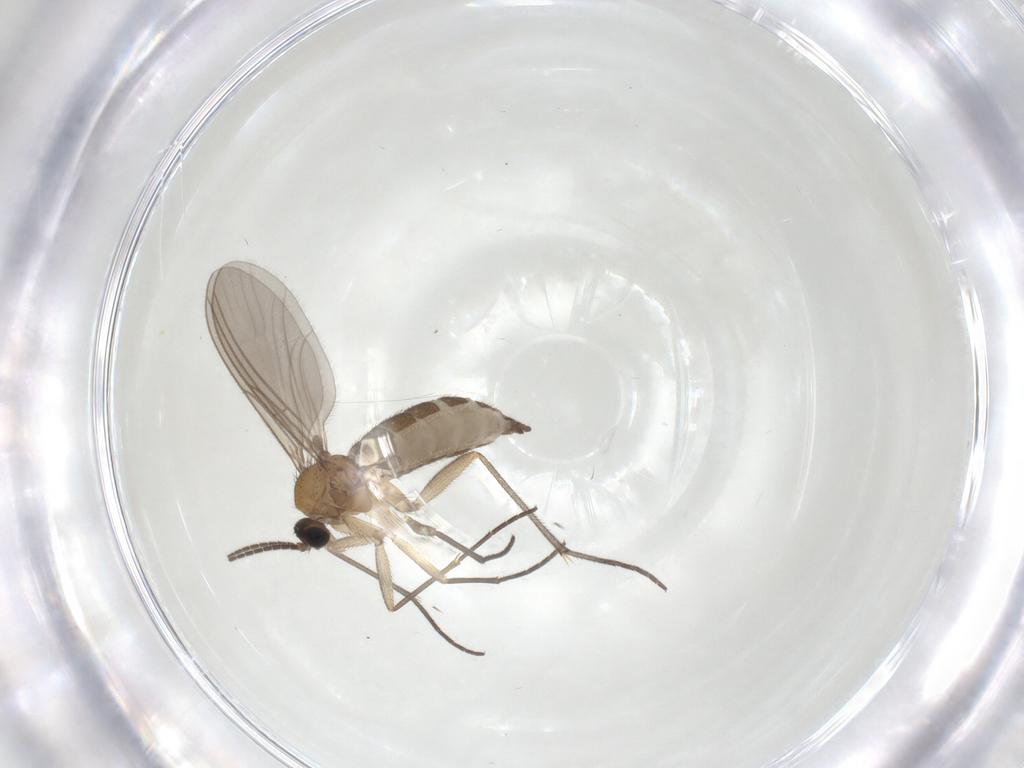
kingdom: Animalia
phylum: Arthropoda
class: Insecta
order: Diptera
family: Sciaridae
